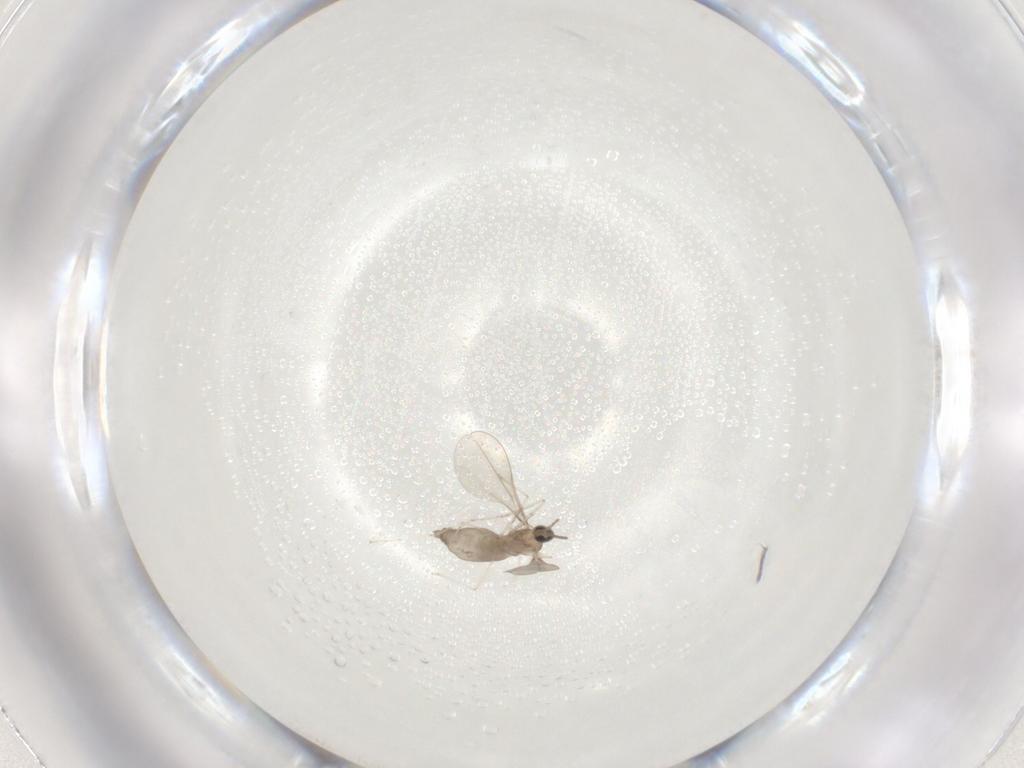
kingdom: Animalia
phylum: Arthropoda
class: Insecta
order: Diptera
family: Cecidomyiidae
